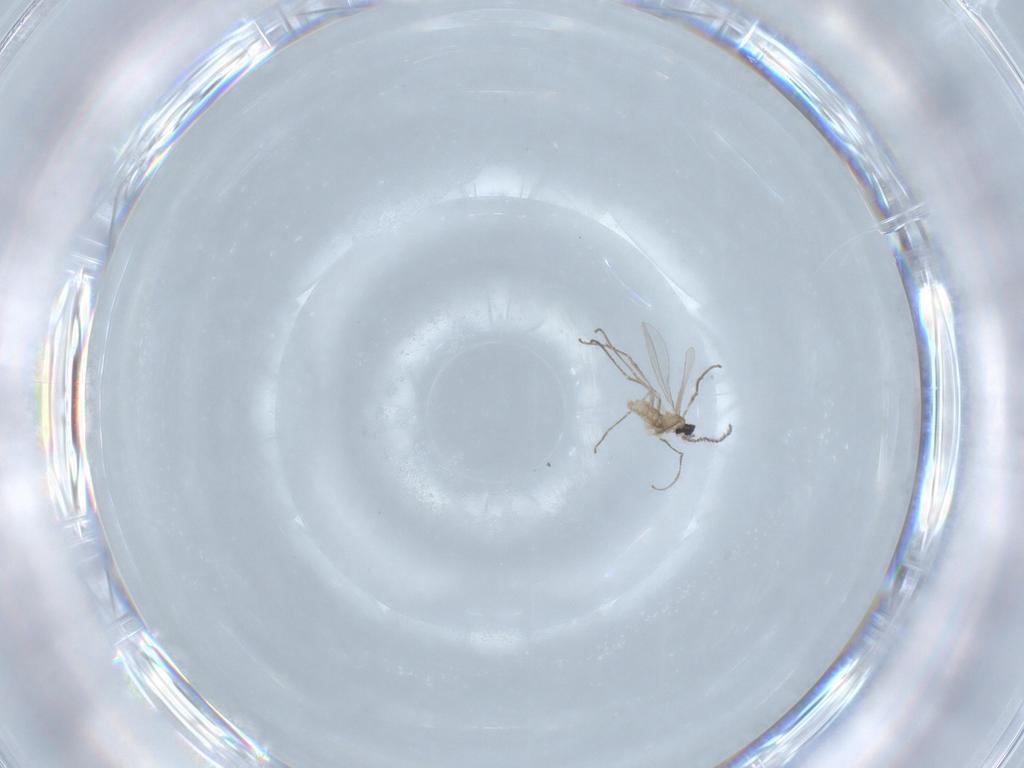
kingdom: Animalia
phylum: Arthropoda
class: Insecta
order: Diptera
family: Cecidomyiidae
